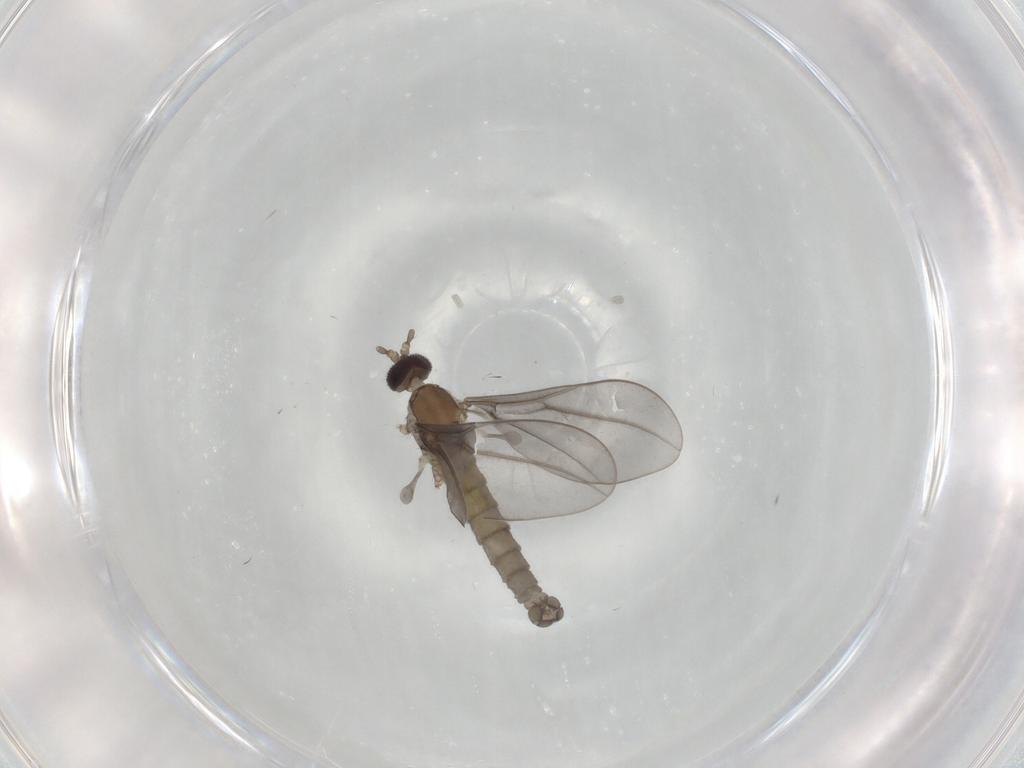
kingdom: Animalia
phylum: Arthropoda
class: Insecta
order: Diptera
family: Cecidomyiidae
